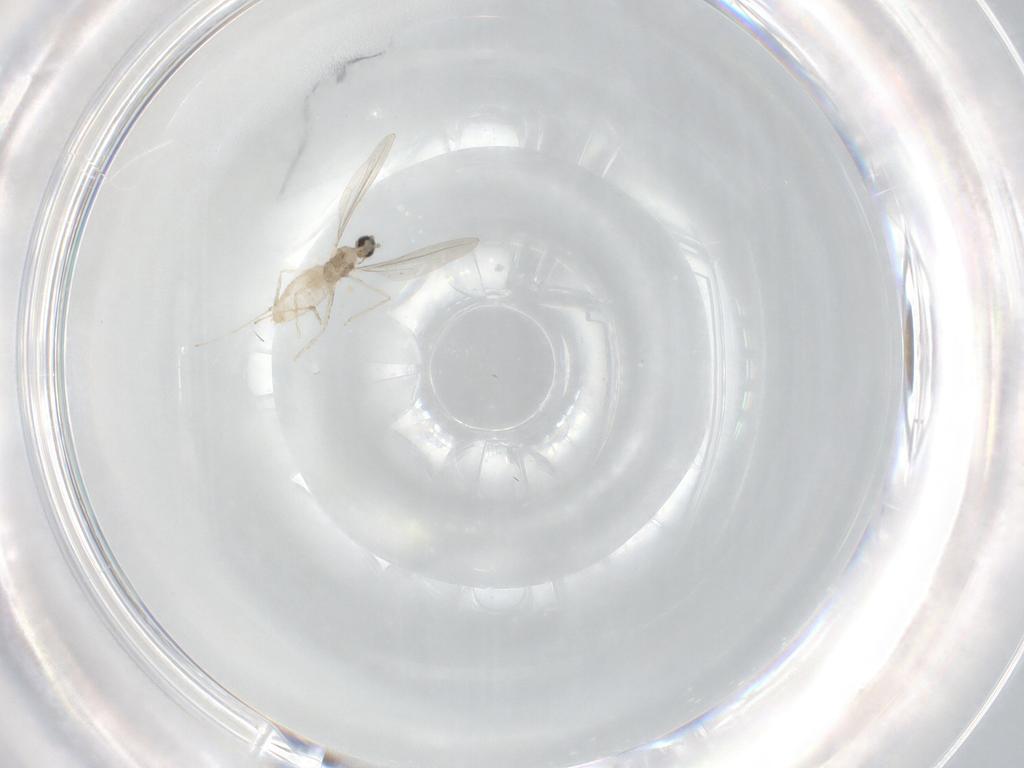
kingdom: Animalia
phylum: Arthropoda
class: Insecta
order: Diptera
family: Cecidomyiidae
